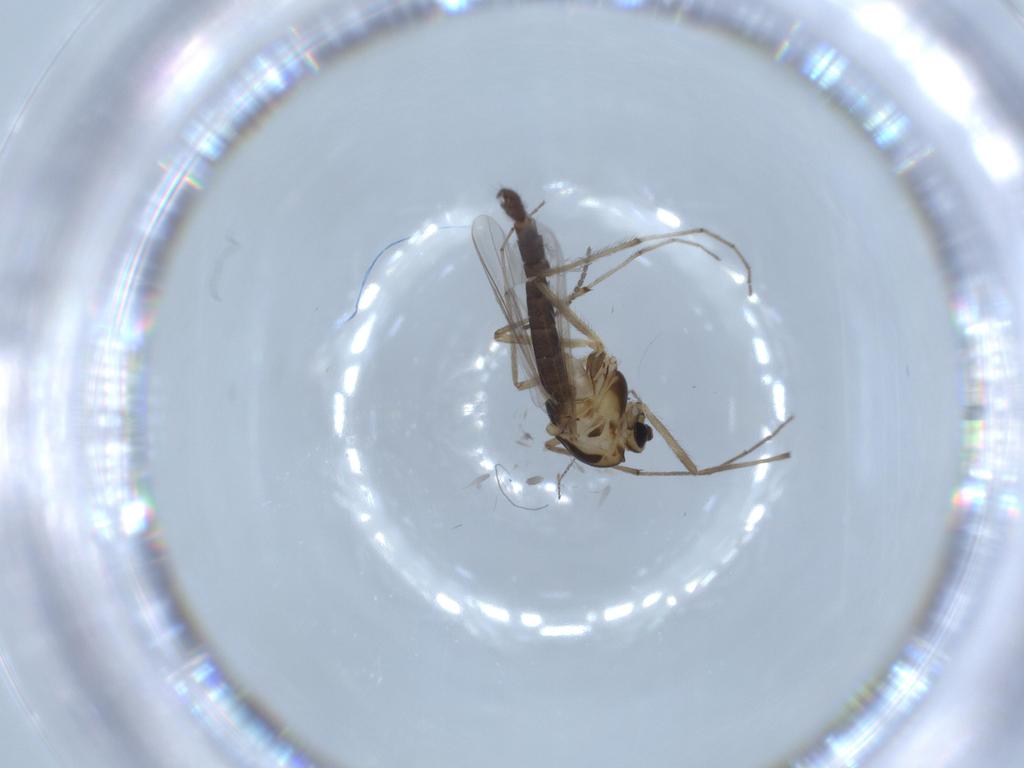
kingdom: Animalia
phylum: Arthropoda
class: Insecta
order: Diptera
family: Chironomidae
